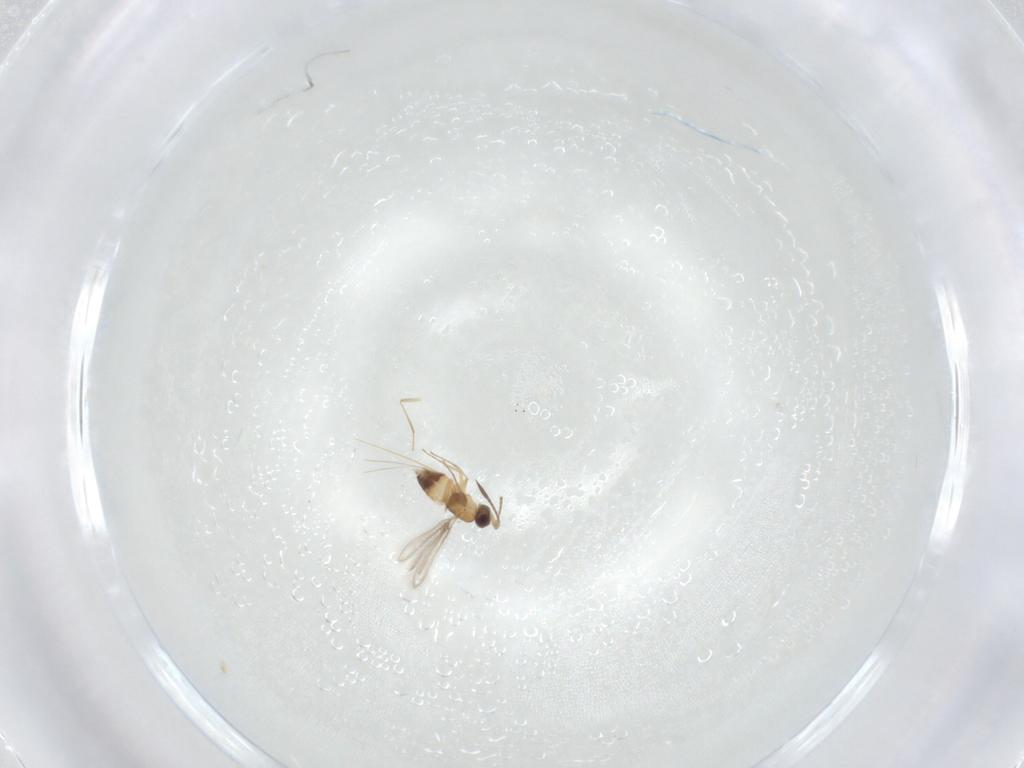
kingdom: Animalia
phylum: Arthropoda
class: Insecta
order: Hymenoptera
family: Mymaridae
